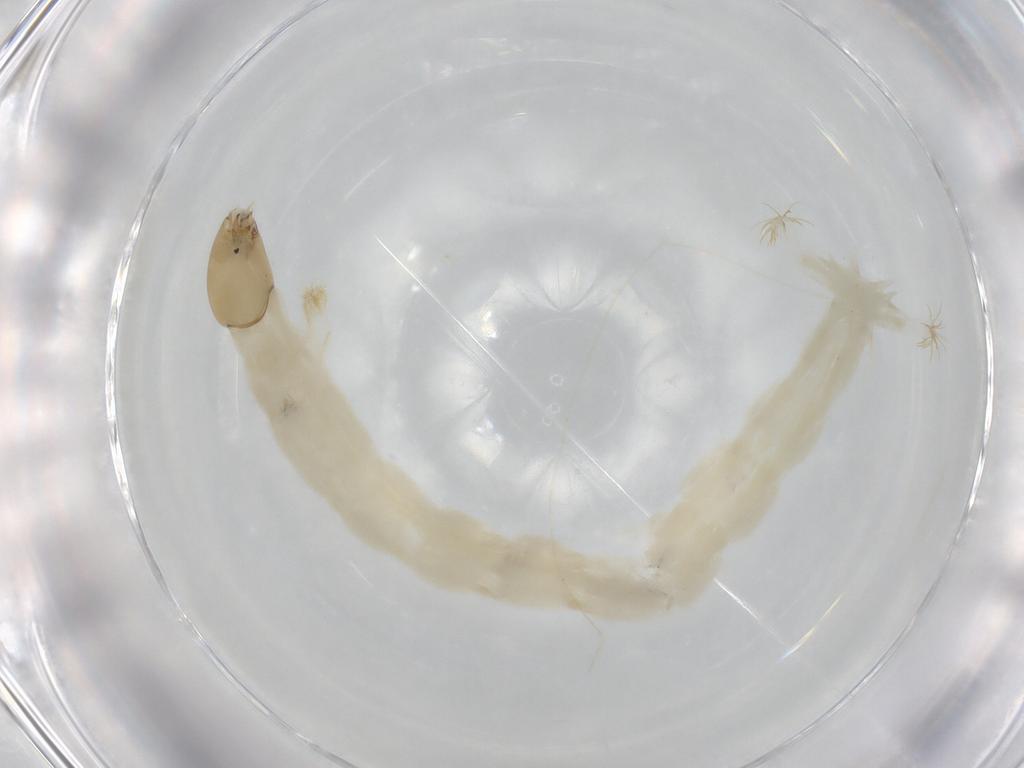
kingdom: Animalia
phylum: Arthropoda
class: Insecta
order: Diptera
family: Chironomidae
